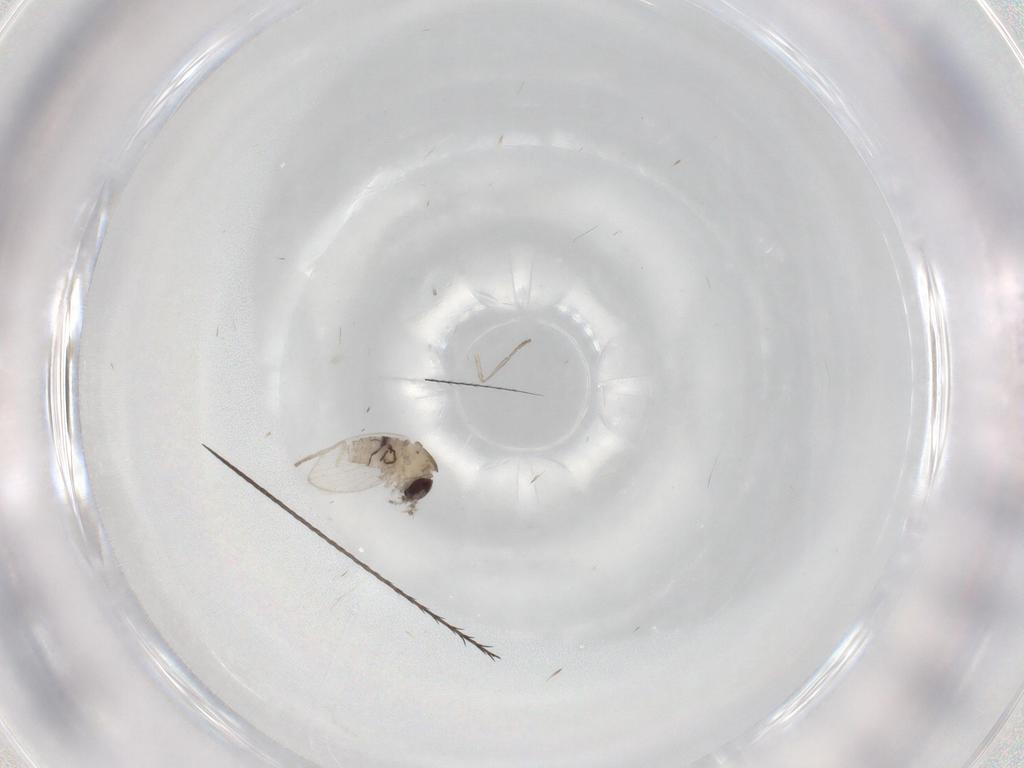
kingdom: Animalia
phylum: Arthropoda
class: Insecta
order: Diptera
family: Psychodidae
